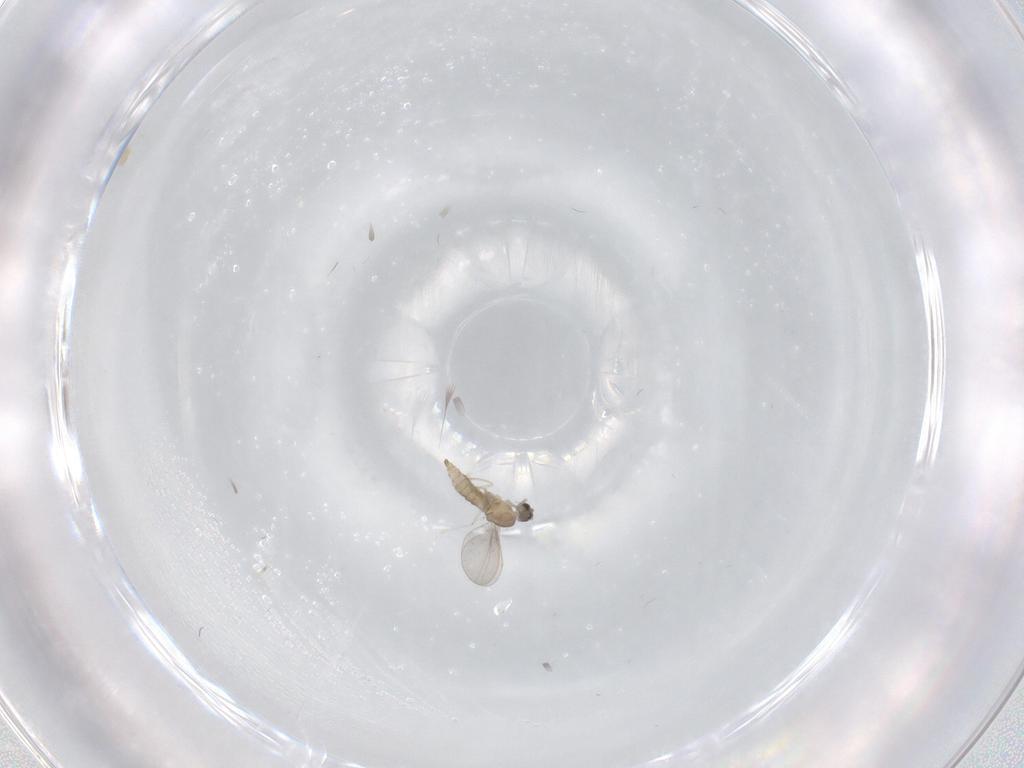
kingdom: Animalia
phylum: Arthropoda
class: Insecta
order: Diptera
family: Cecidomyiidae
